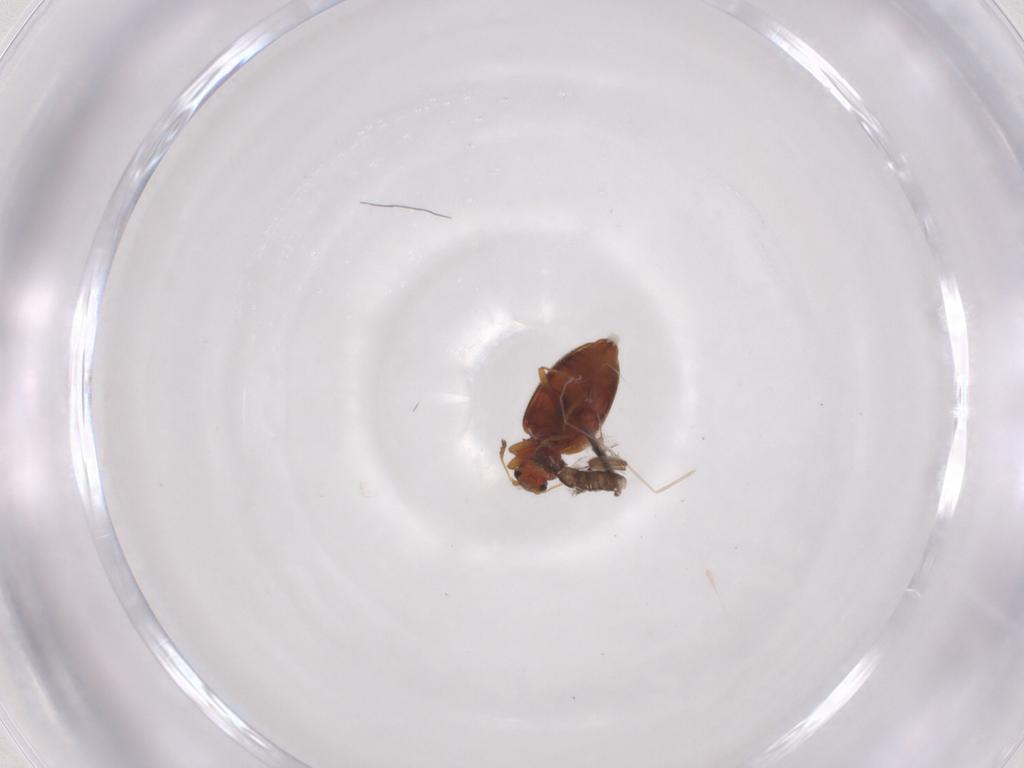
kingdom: Animalia
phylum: Arthropoda
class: Insecta
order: Coleoptera
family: Latridiidae
